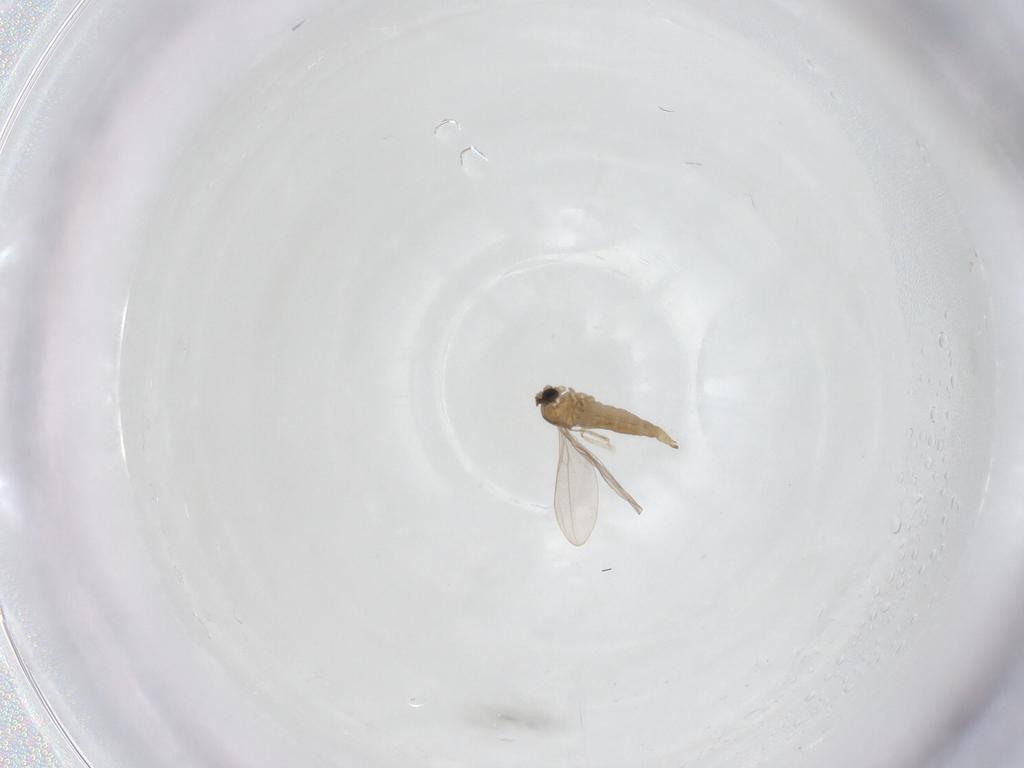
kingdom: Animalia
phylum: Arthropoda
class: Insecta
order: Diptera
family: Cecidomyiidae
